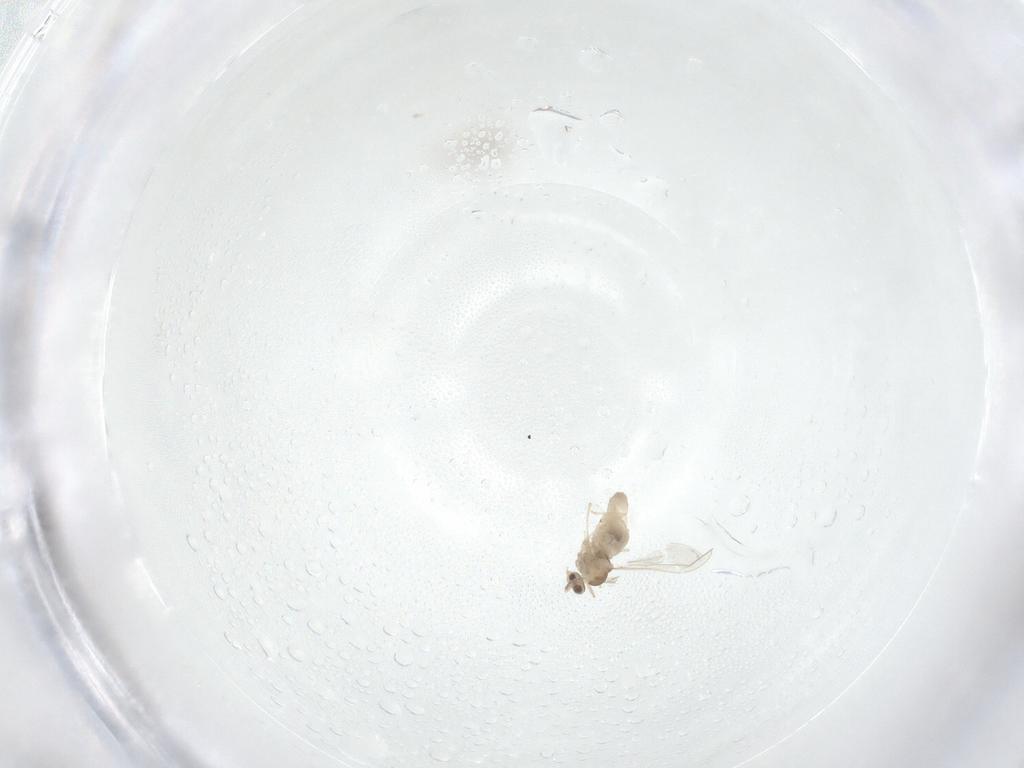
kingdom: Animalia
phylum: Arthropoda
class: Insecta
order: Diptera
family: Cecidomyiidae
